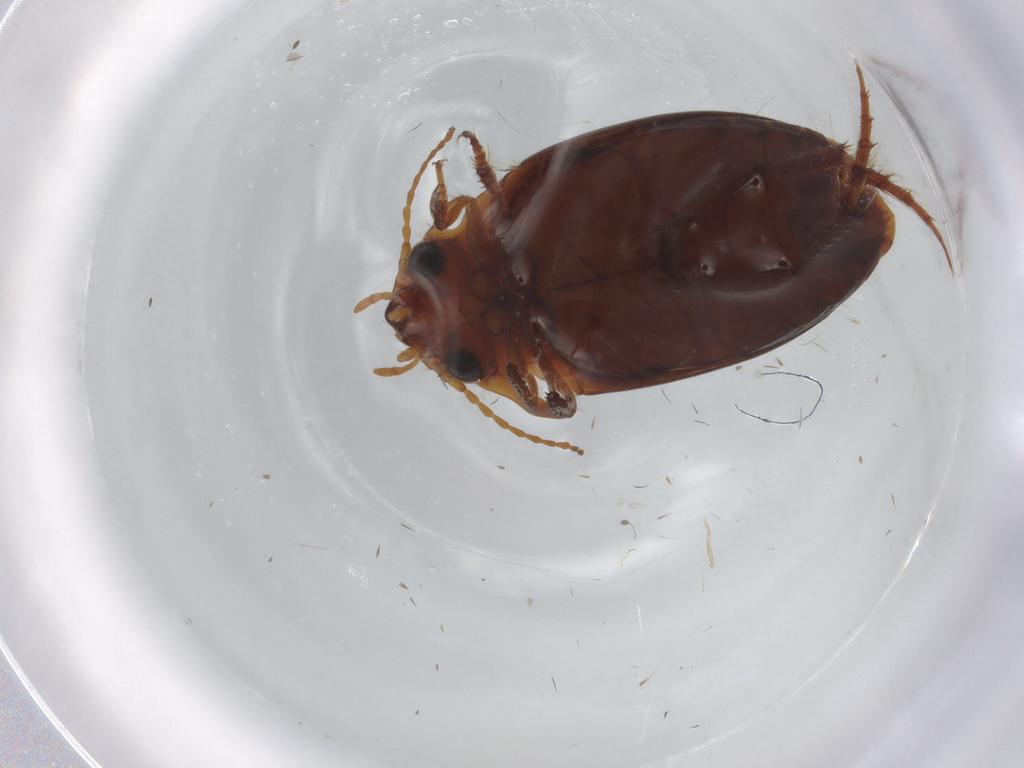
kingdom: Animalia
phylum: Arthropoda
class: Insecta
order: Coleoptera
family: Dytiscidae
